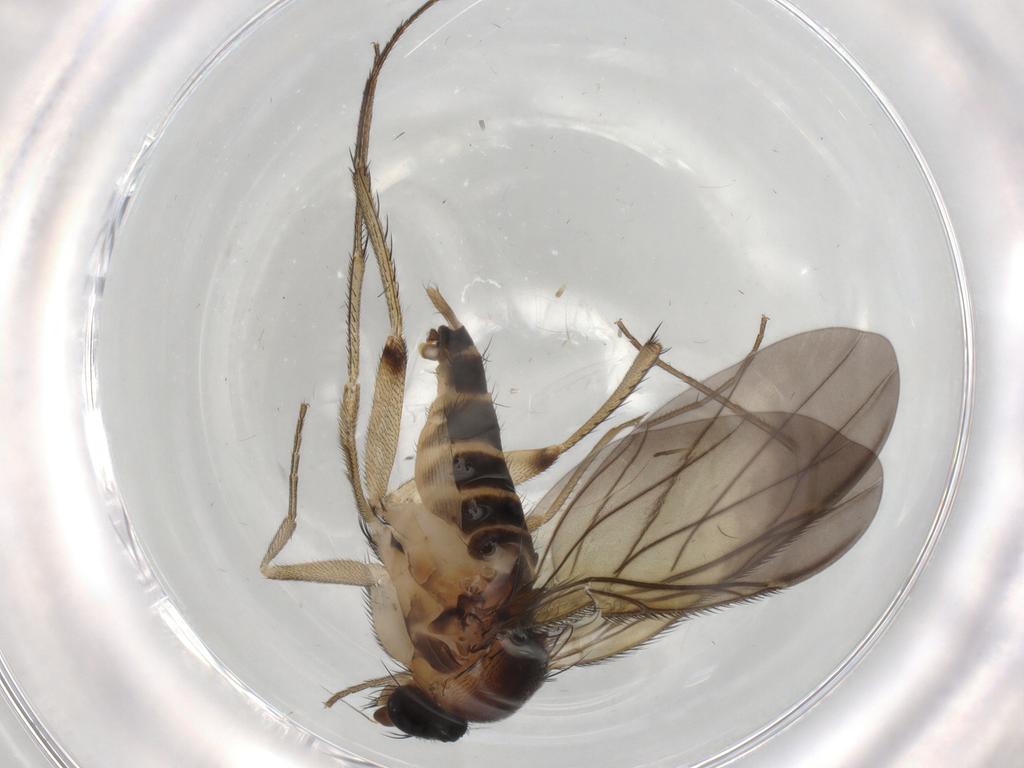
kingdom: Animalia
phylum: Arthropoda
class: Insecta
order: Diptera
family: Phoridae
